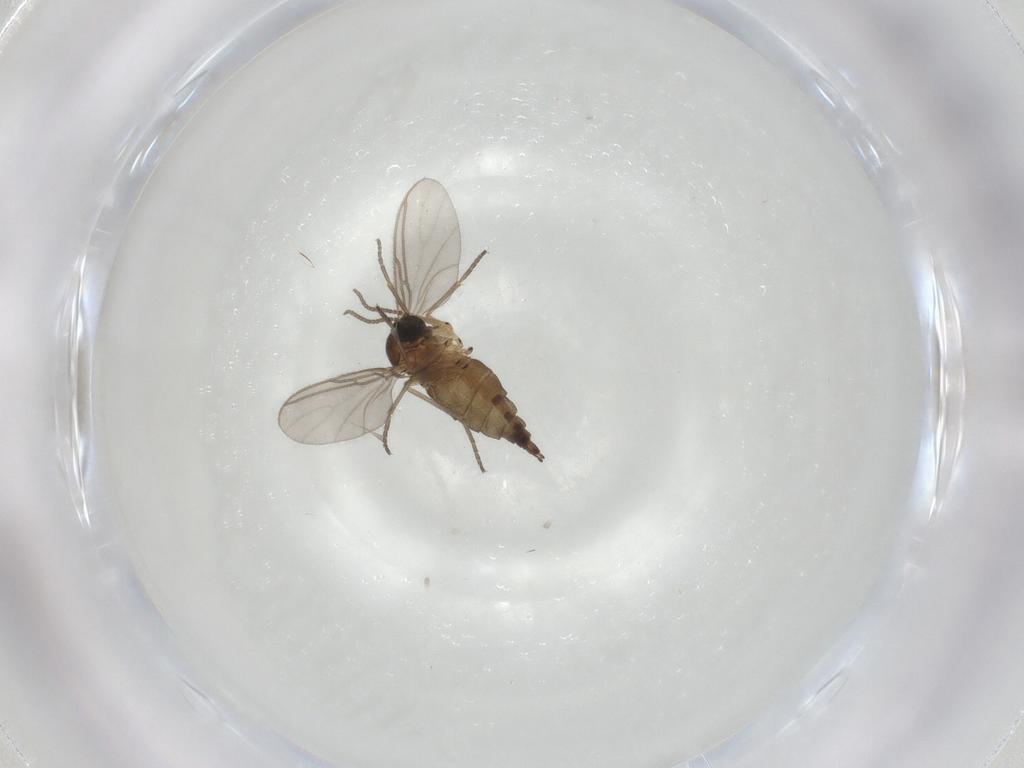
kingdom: Animalia
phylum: Arthropoda
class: Insecta
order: Diptera
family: Sciaridae
